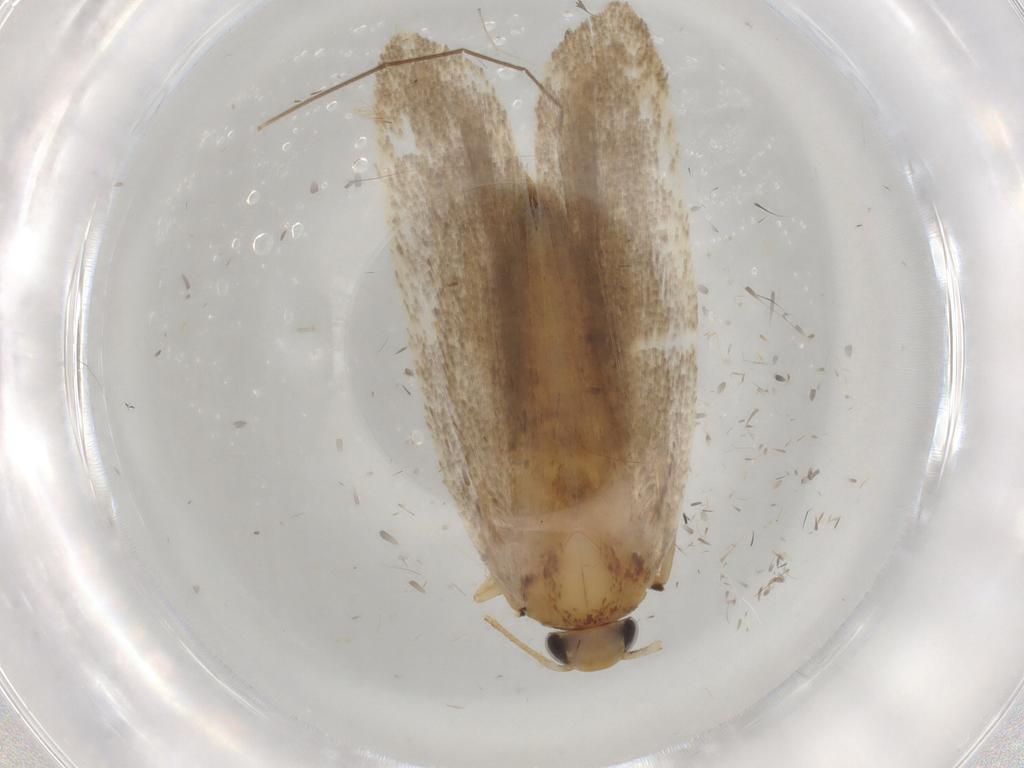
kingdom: Animalia
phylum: Arthropoda
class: Insecta
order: Lepidoptera
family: Autostichidae
